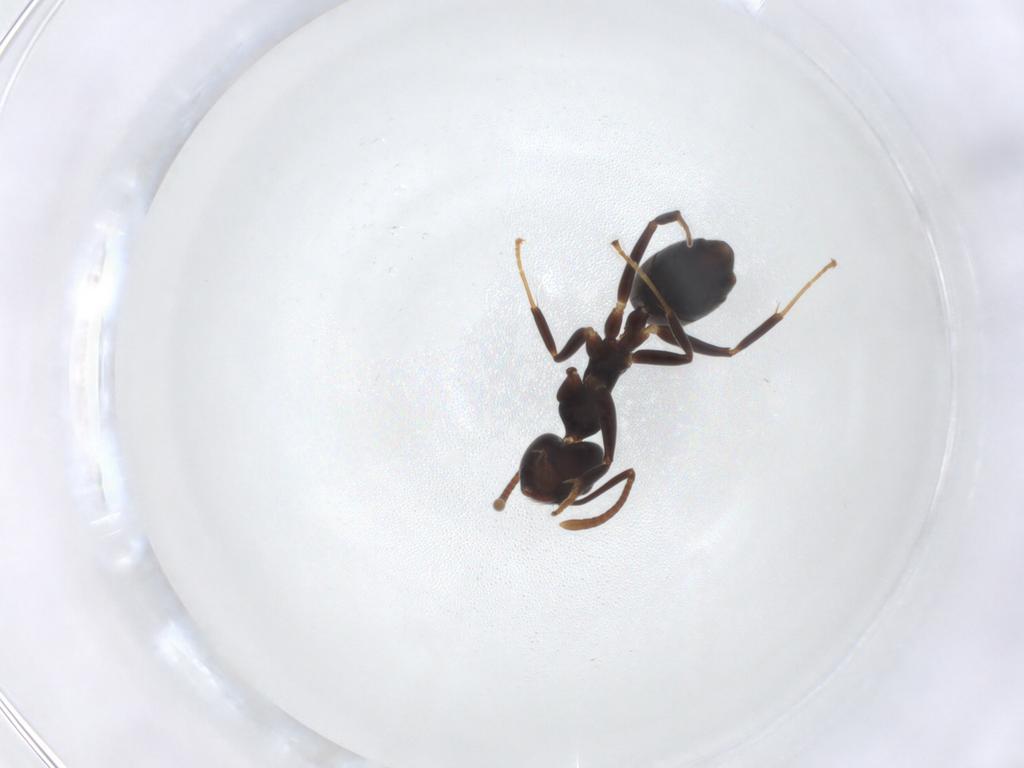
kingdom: Animalia
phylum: Arthropoda
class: Insecta
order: Hymenoptera
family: Formicidae
